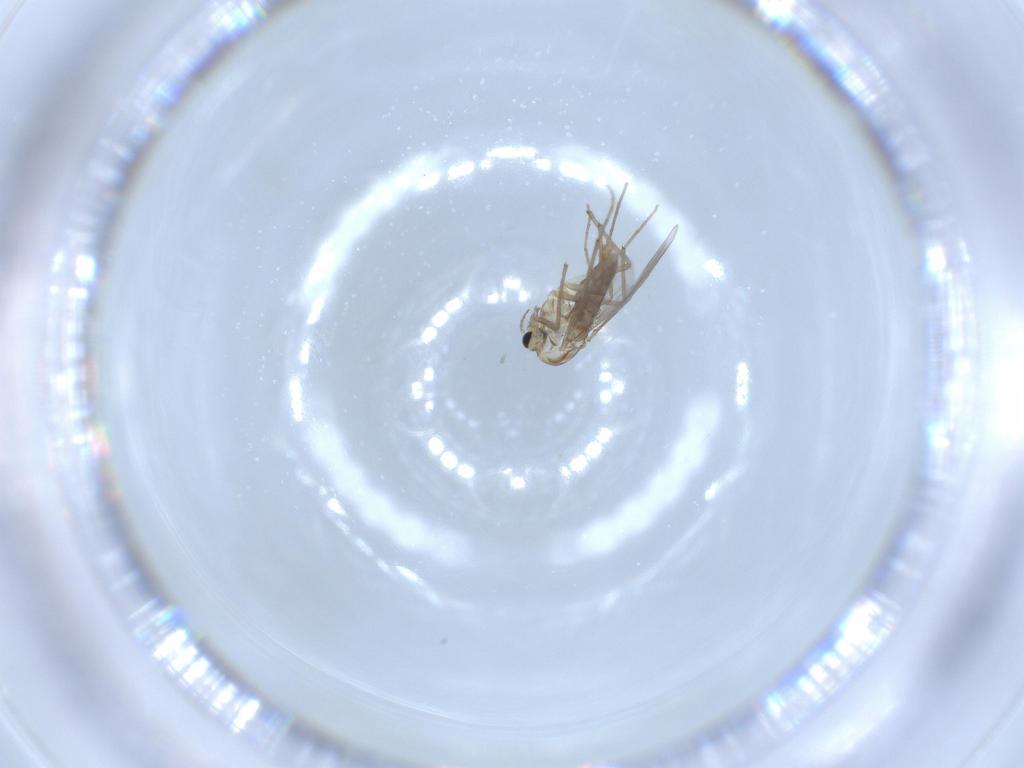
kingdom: Animalia
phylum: Arthropoda
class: Insecta
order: Diptera
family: Chironomidae
